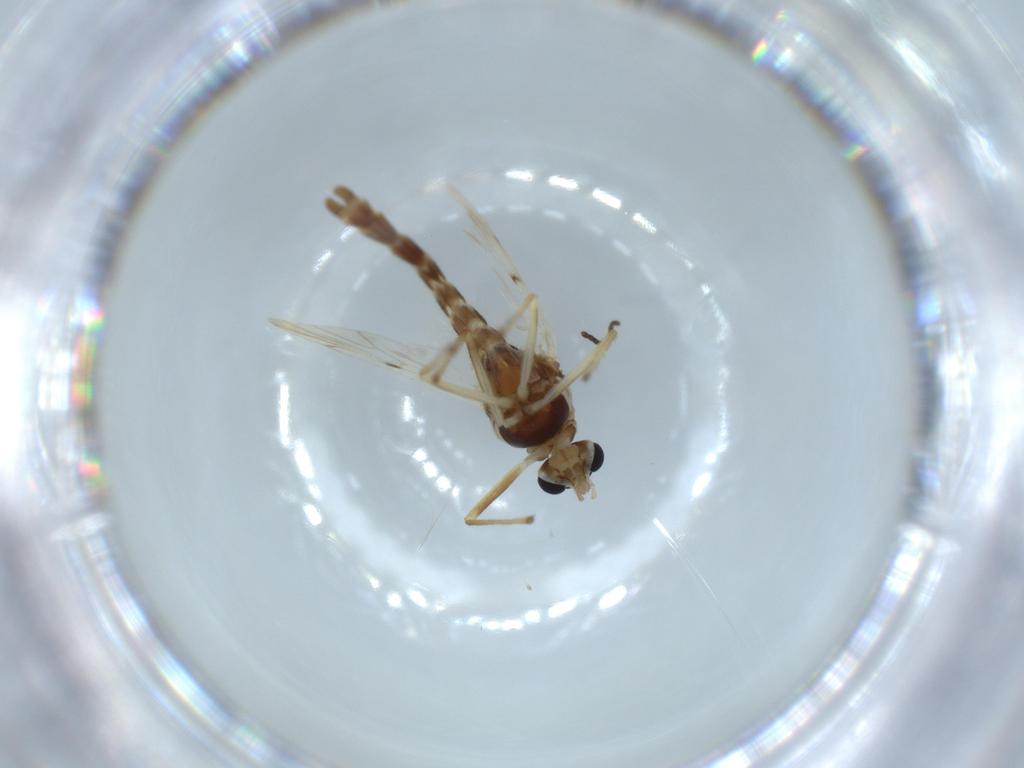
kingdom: Animalia
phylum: Arthropoda
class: Insecta
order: Diptera
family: Chironomidae
